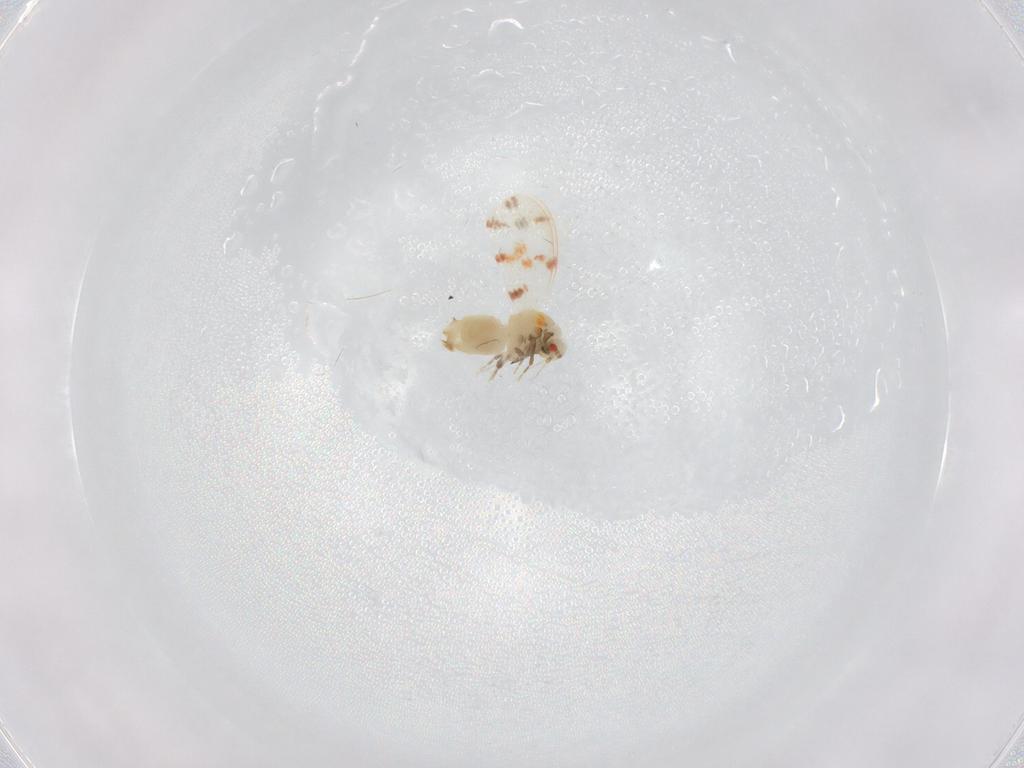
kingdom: Animalia
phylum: Arthropoda
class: Insecta
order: Hemiptera
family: Aleyrodidae
